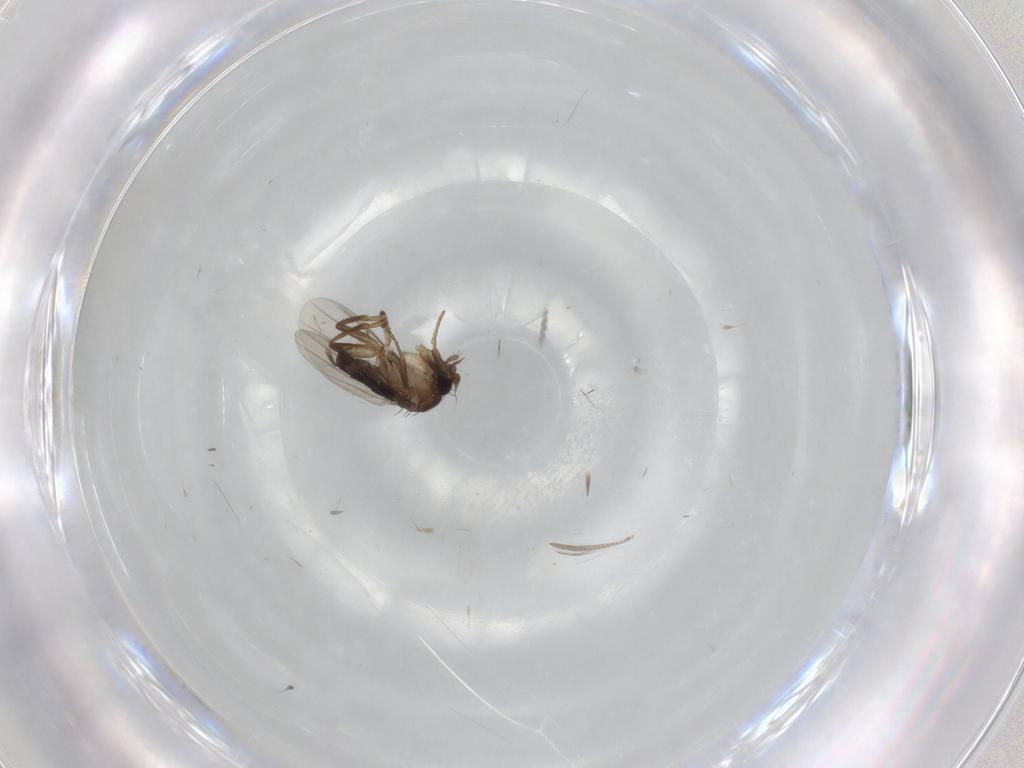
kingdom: Animalia
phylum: Arthropoda
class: Insecta
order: Diptera
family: Phoridae
